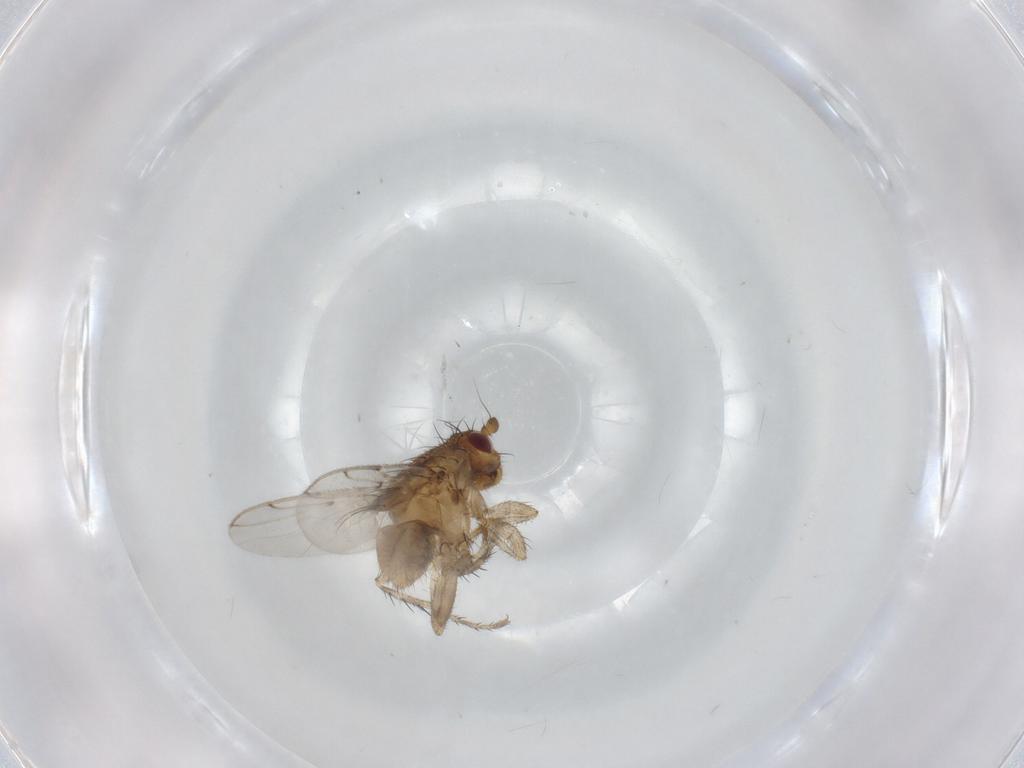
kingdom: Animalia
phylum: Arthropoda
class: Insecta
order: Diptera
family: Sphaeroceridae
